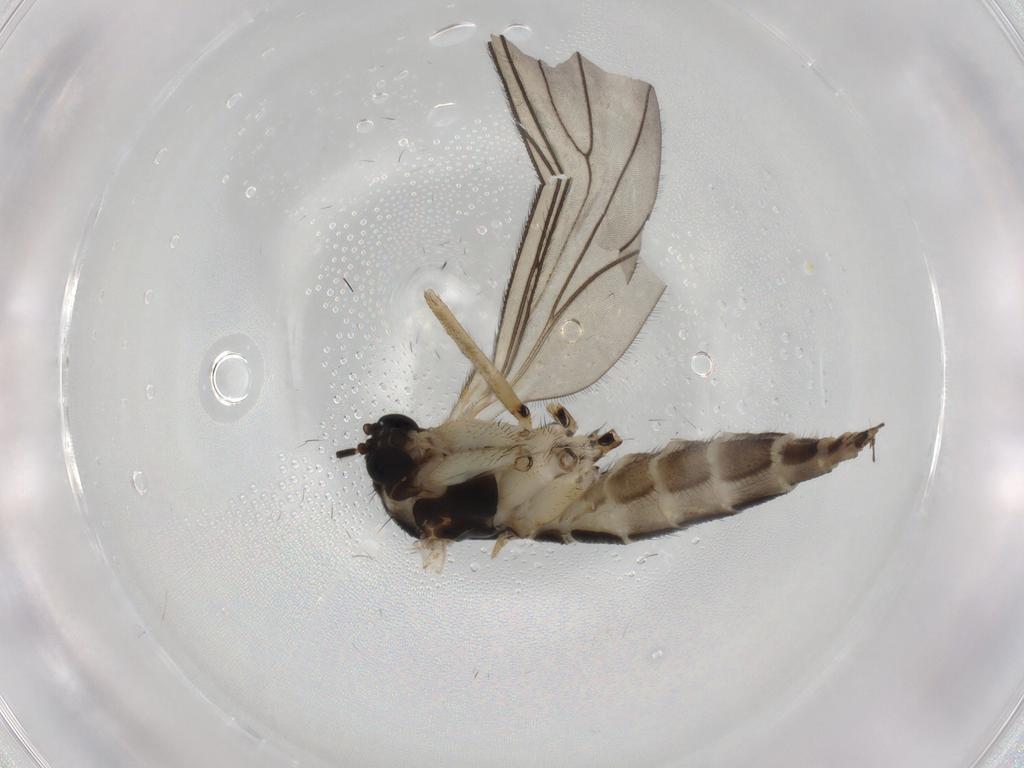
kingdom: Animalia
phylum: Arthropoda
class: Insecta
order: Diptera
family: Sciaridae
